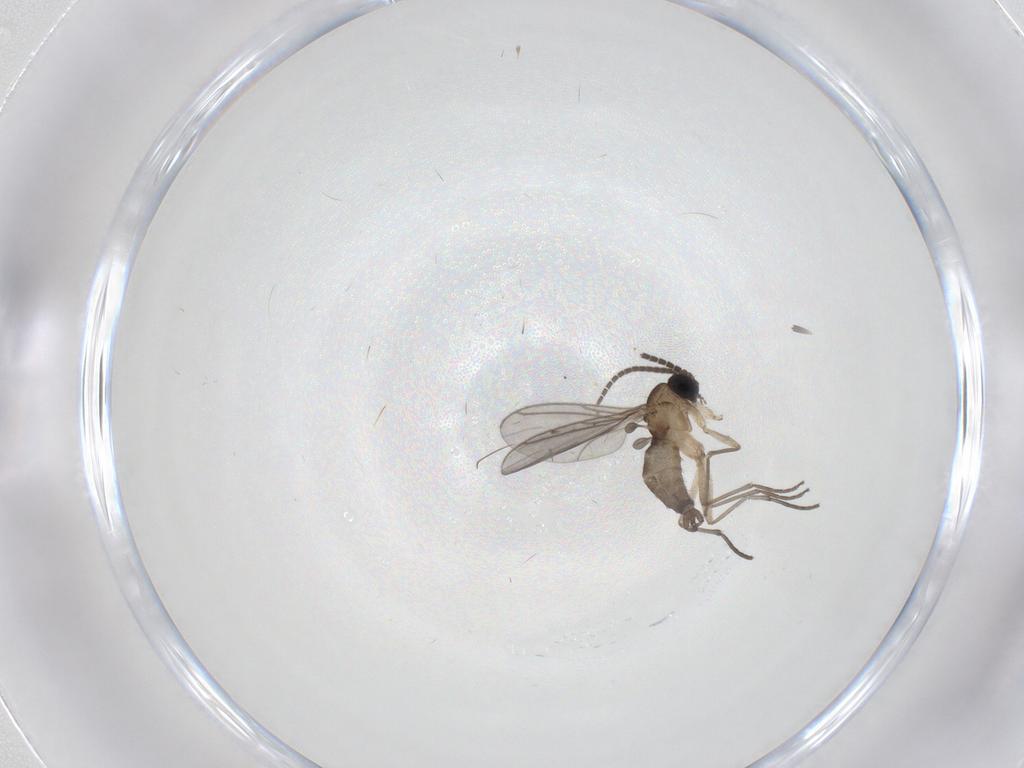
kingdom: Animalia
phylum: Arthropoda
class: Insecta
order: Diptera
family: Sciaridae
